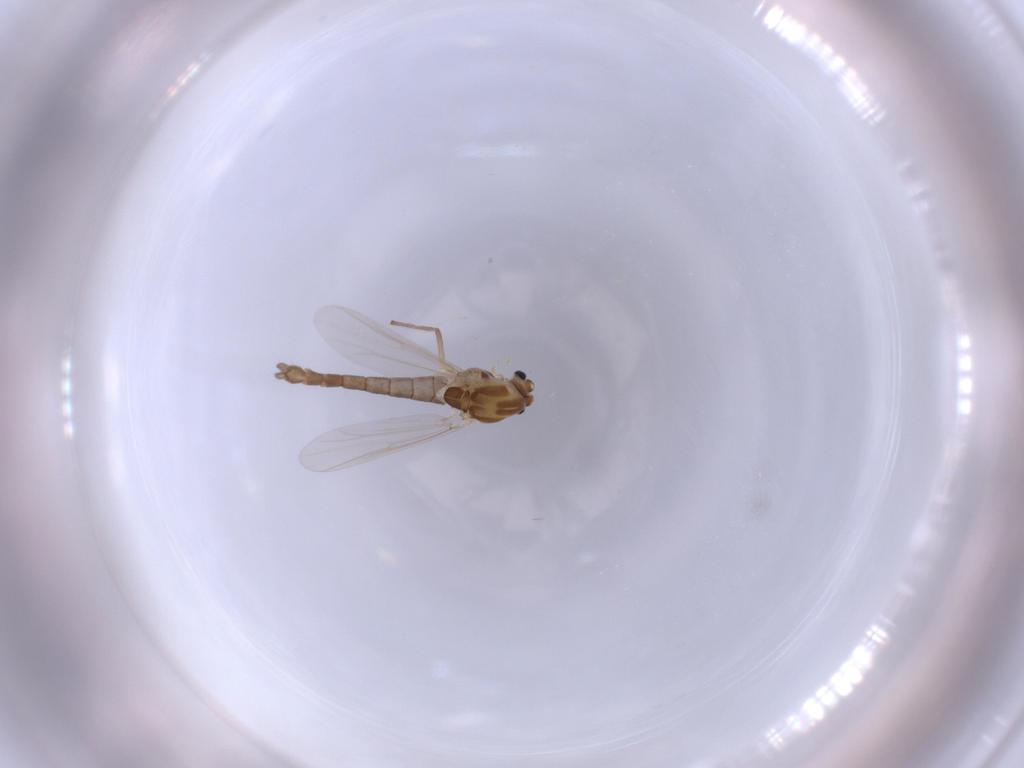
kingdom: Animalia
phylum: Arthropoda
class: Insecta
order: Diptera
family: Chironomidae
